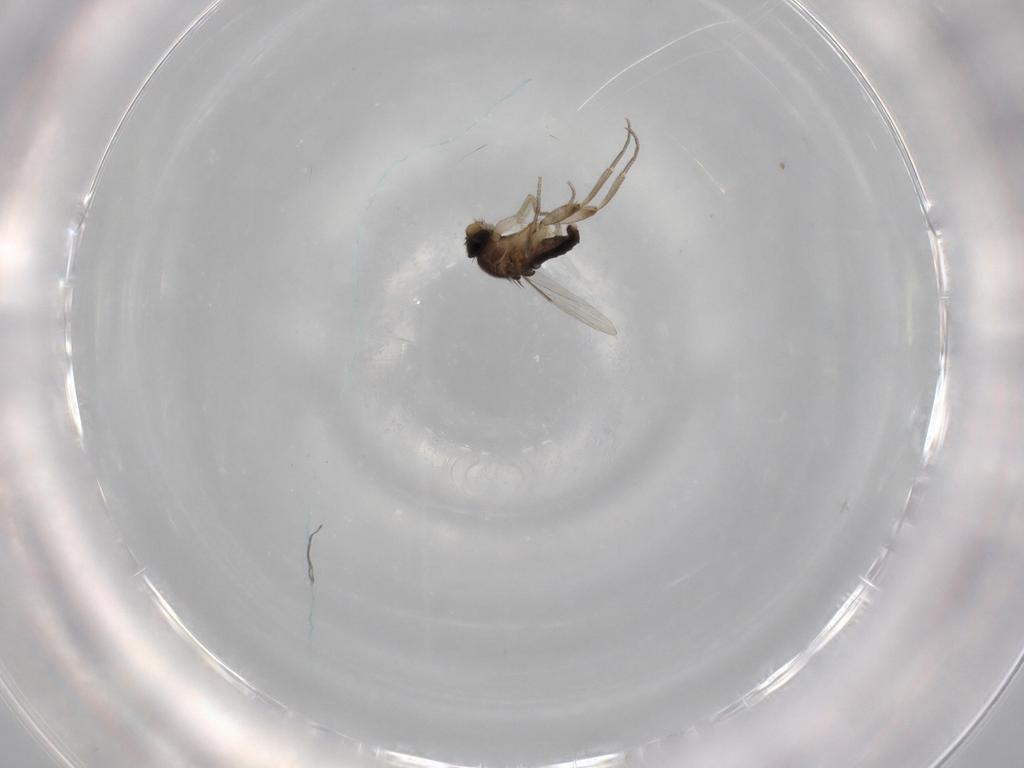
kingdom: Animalia
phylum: Arthropoda
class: Insecta
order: Diptera
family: Phoridae
